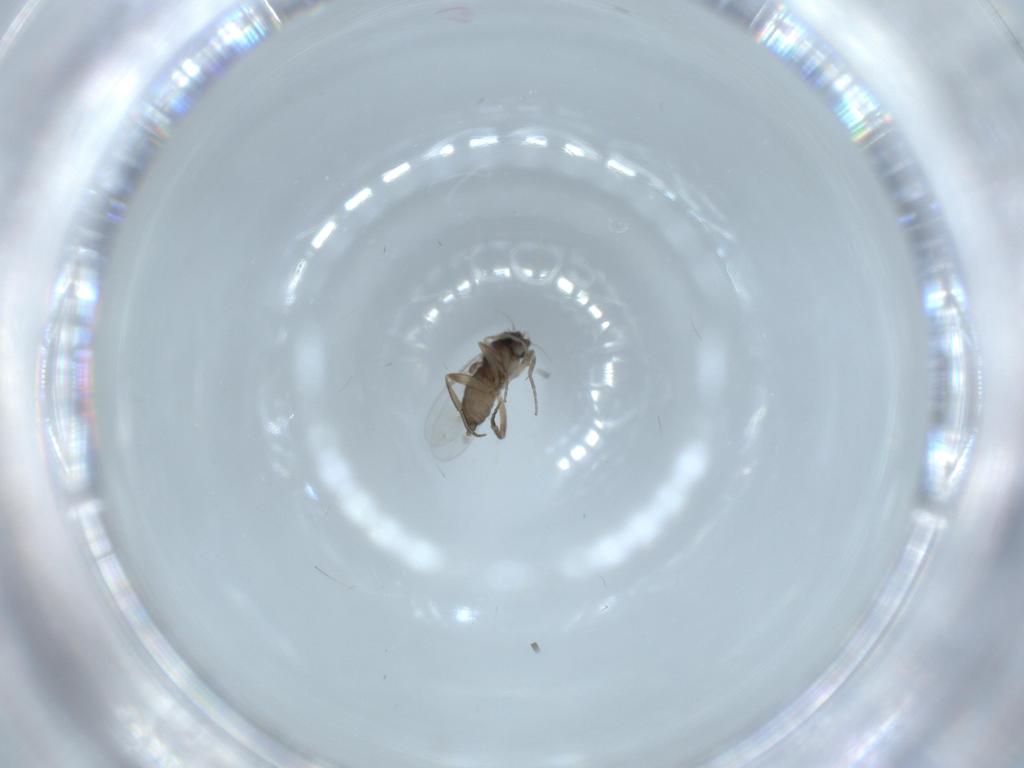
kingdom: Animalia
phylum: Arthropoda
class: Insecta
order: Diptera
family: Phoridae
